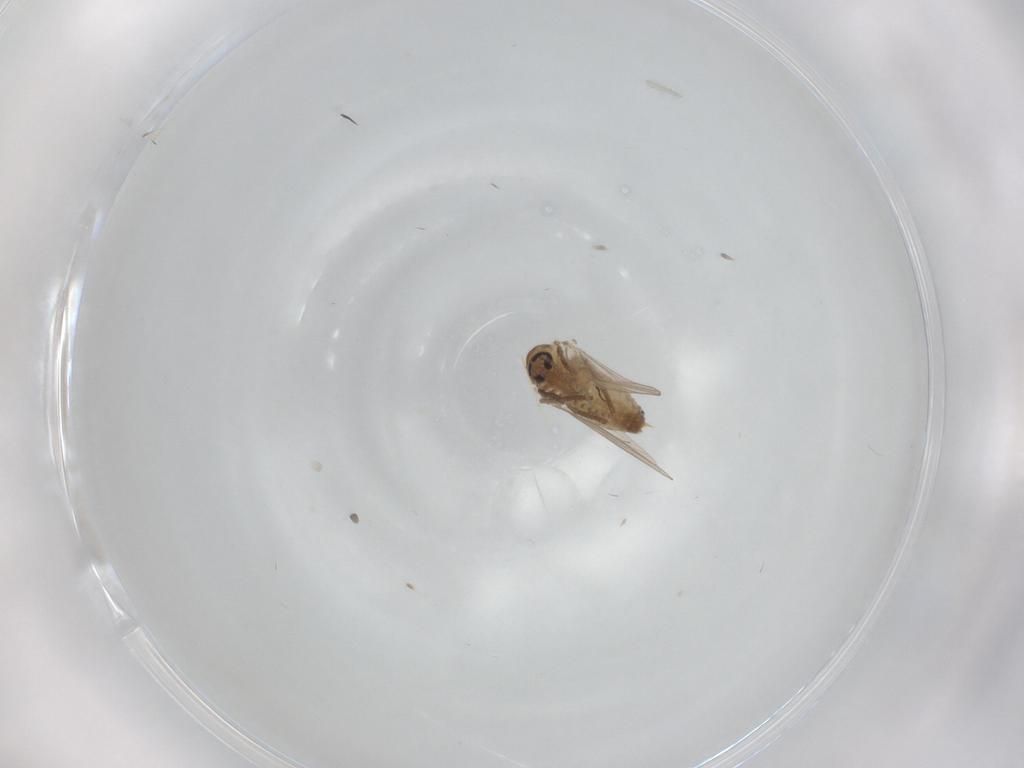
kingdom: Animalia
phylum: Arthropoda
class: Insecta
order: Diptera
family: Psychodidae
